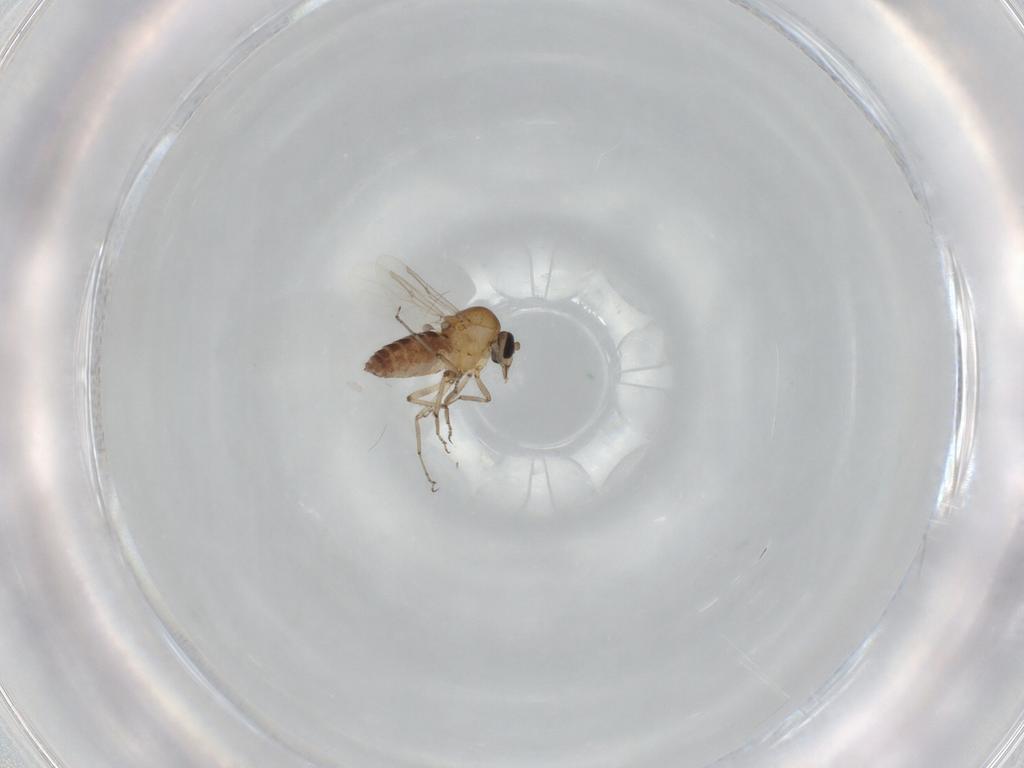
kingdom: Animalia
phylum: Arthropoda
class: Insecta
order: Diptera
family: Ceratopogonidae
